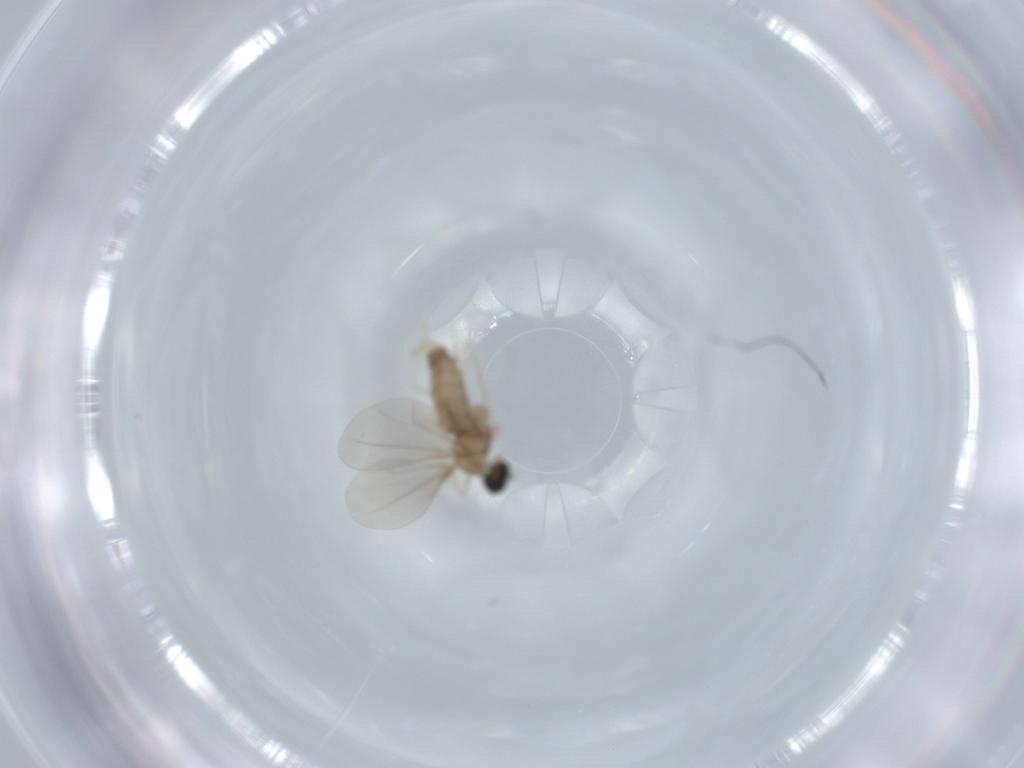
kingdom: Animalia
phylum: Arthropoda
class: Insecta
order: Diptera
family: Cecidomyiidae
